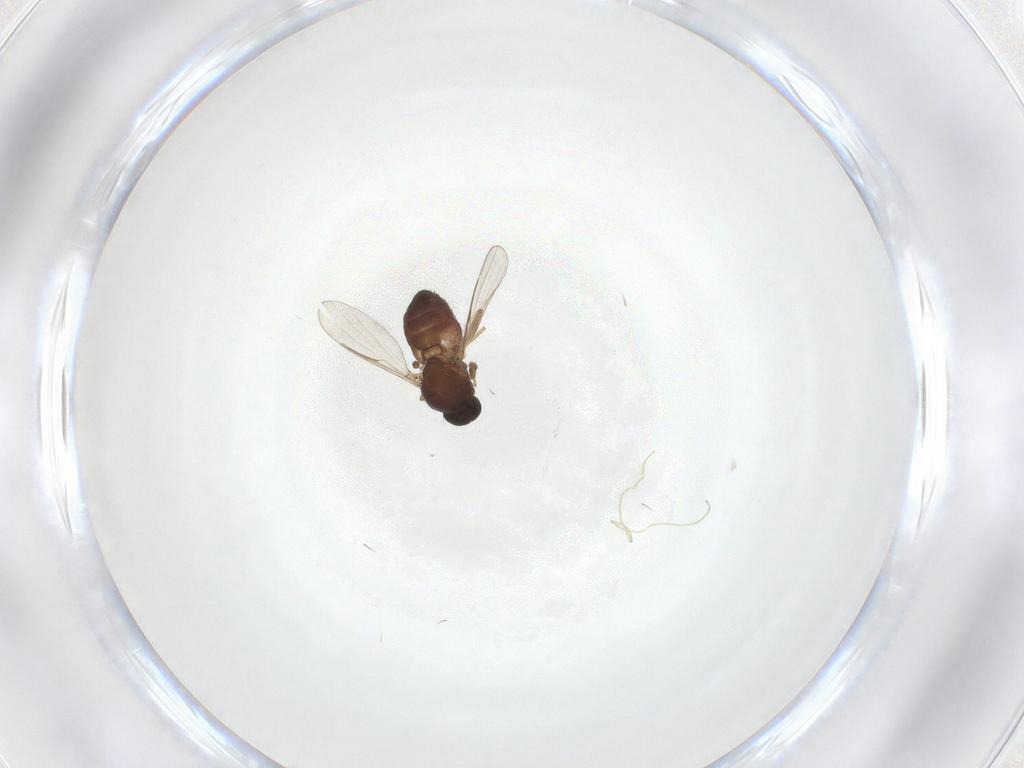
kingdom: Animalia
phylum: Arthropoda
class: Insecta
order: Diptera
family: Ceratopogonidae
